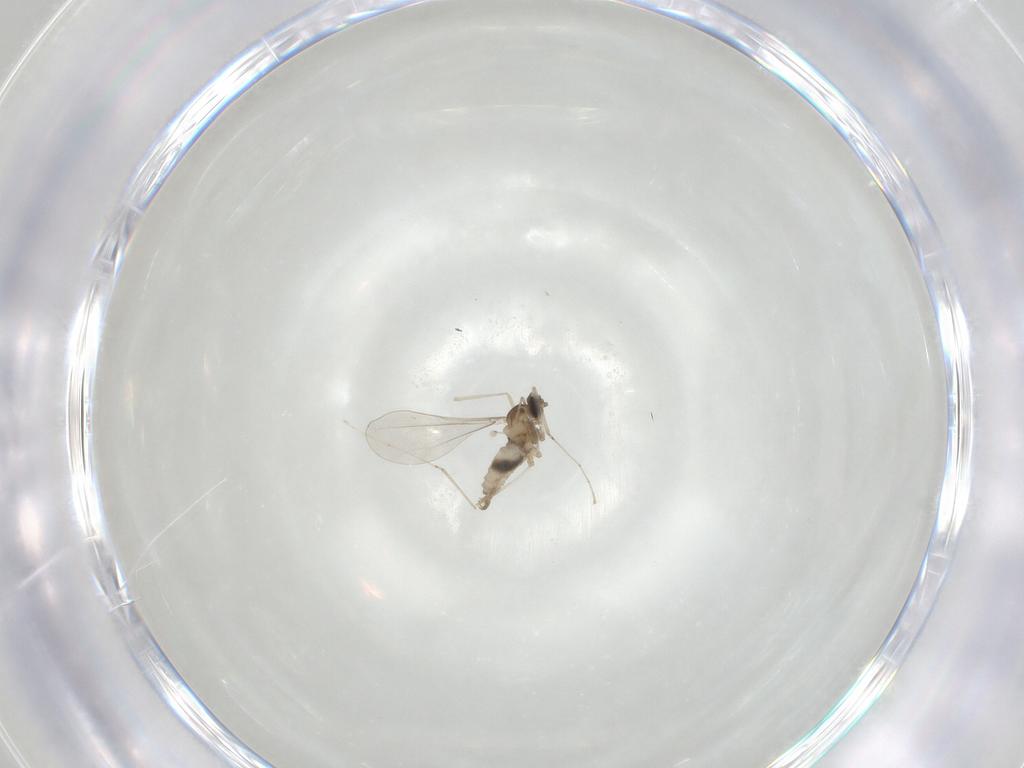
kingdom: Animalia
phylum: Arthropoda
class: Insecta
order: Diptera
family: Cecidomyiidae
